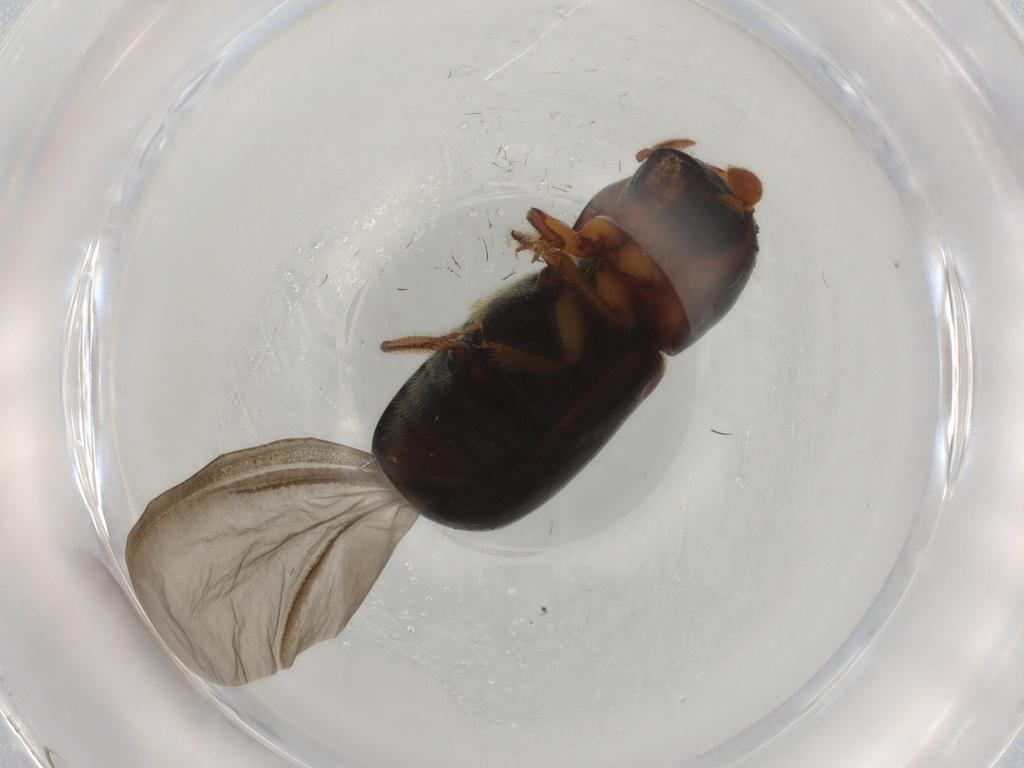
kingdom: Animalia
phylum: Arthropoda
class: Insecta
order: Coleoptera
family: Curculionidae
